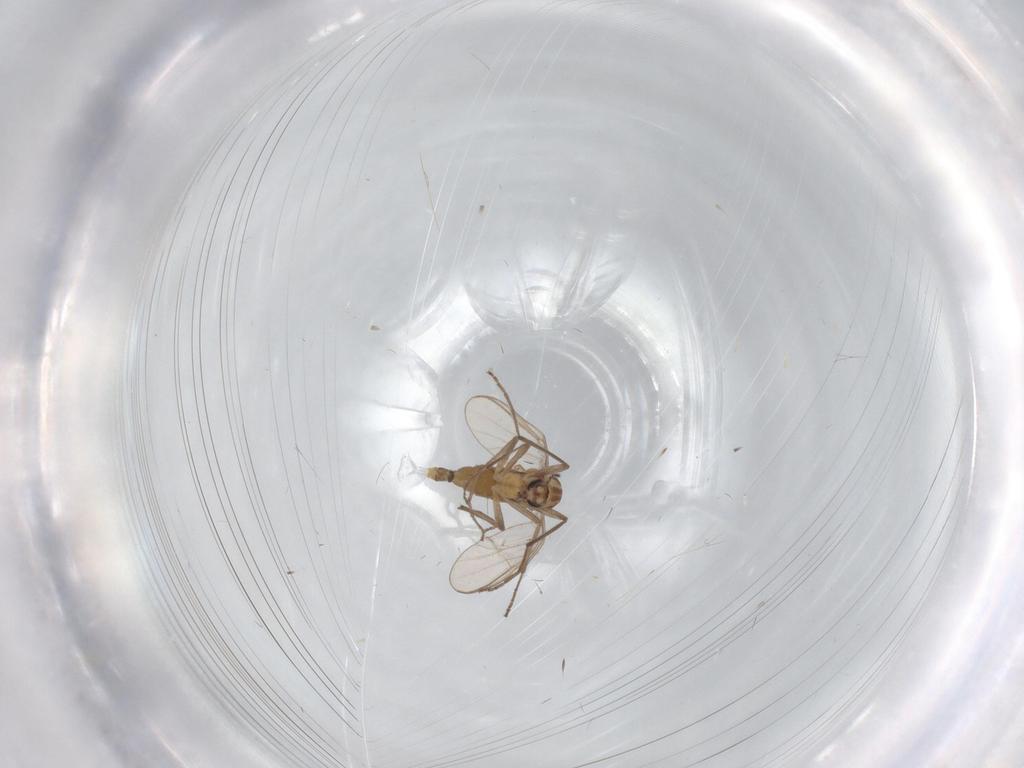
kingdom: Animalia
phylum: Arthropoda
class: Insecta
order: Diptera
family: Chironomidae
